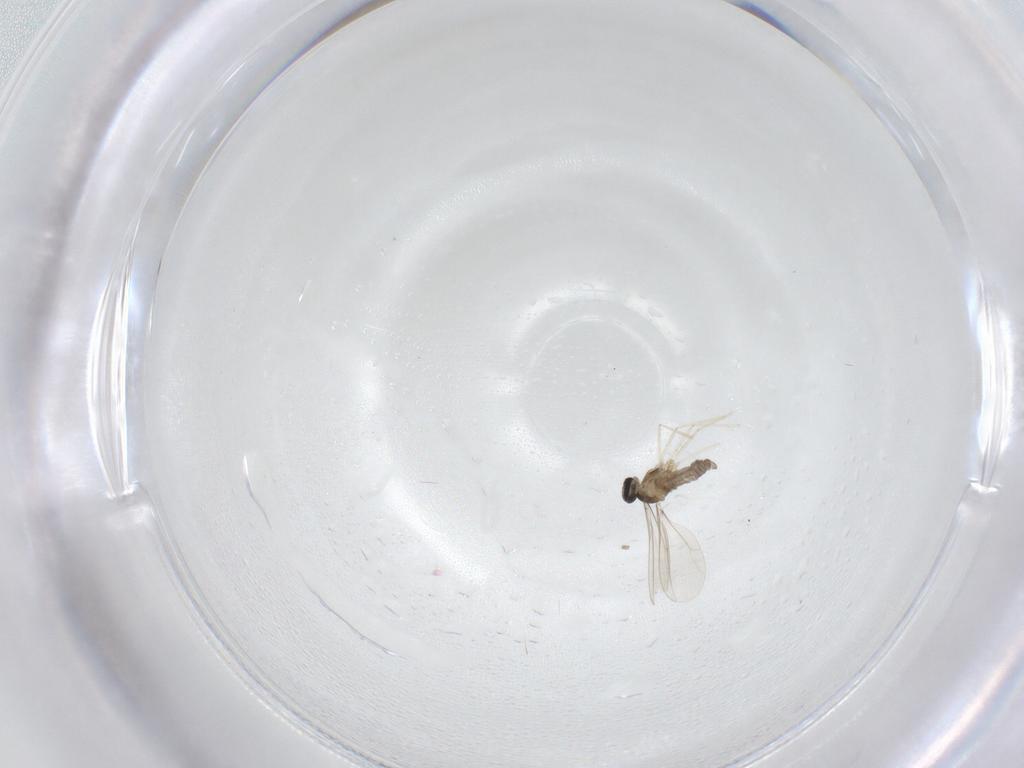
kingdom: Animalia
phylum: Arthropoda
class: Insecta
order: Diptera
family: Cecidomyiidae
